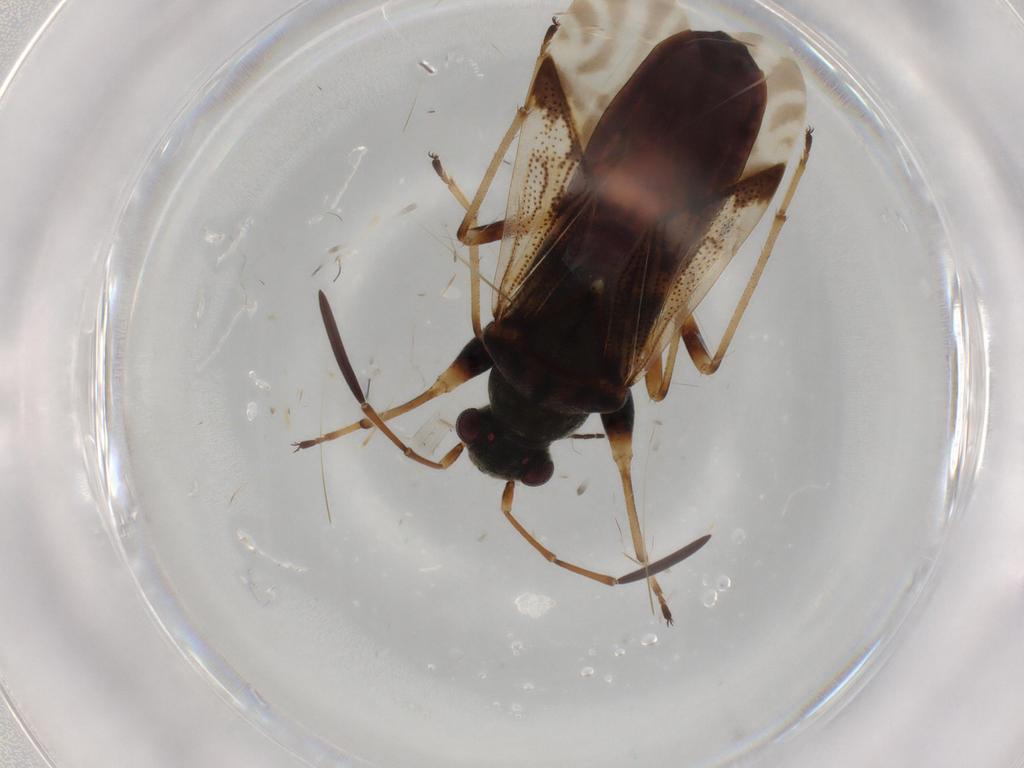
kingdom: Animalia
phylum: Arthropoda
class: Insecta
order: Hemiptera
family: Rhyparochromidae
